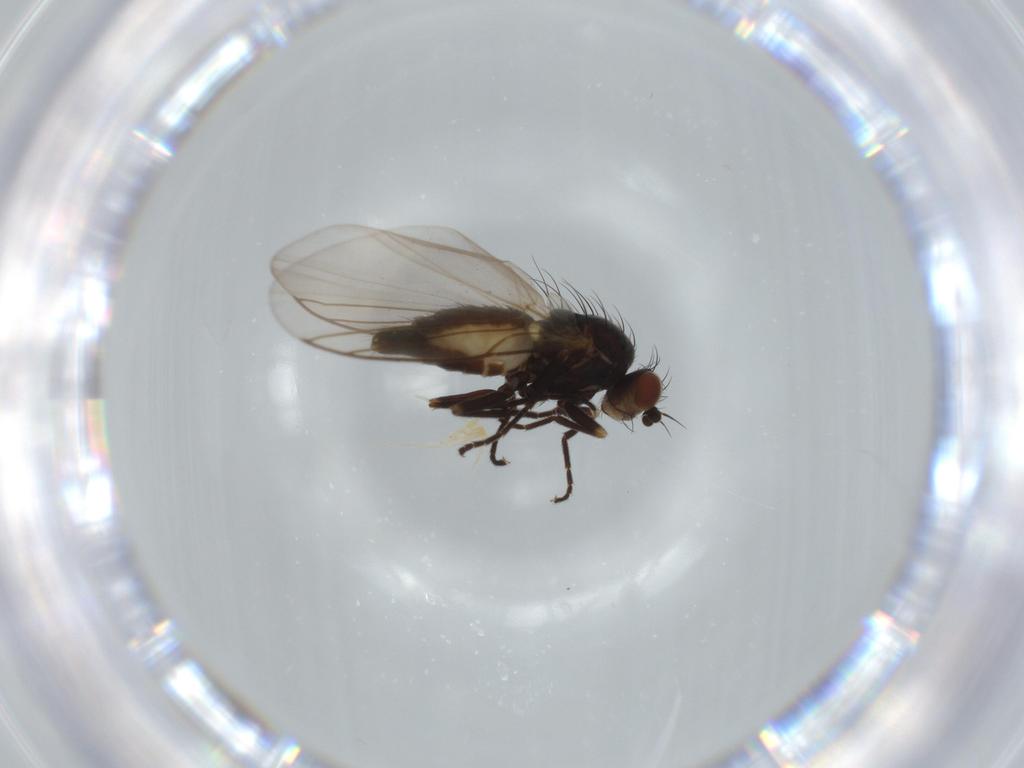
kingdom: Animalia
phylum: Arthropoda
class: Insecta
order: Diptera
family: Agromyzidae
